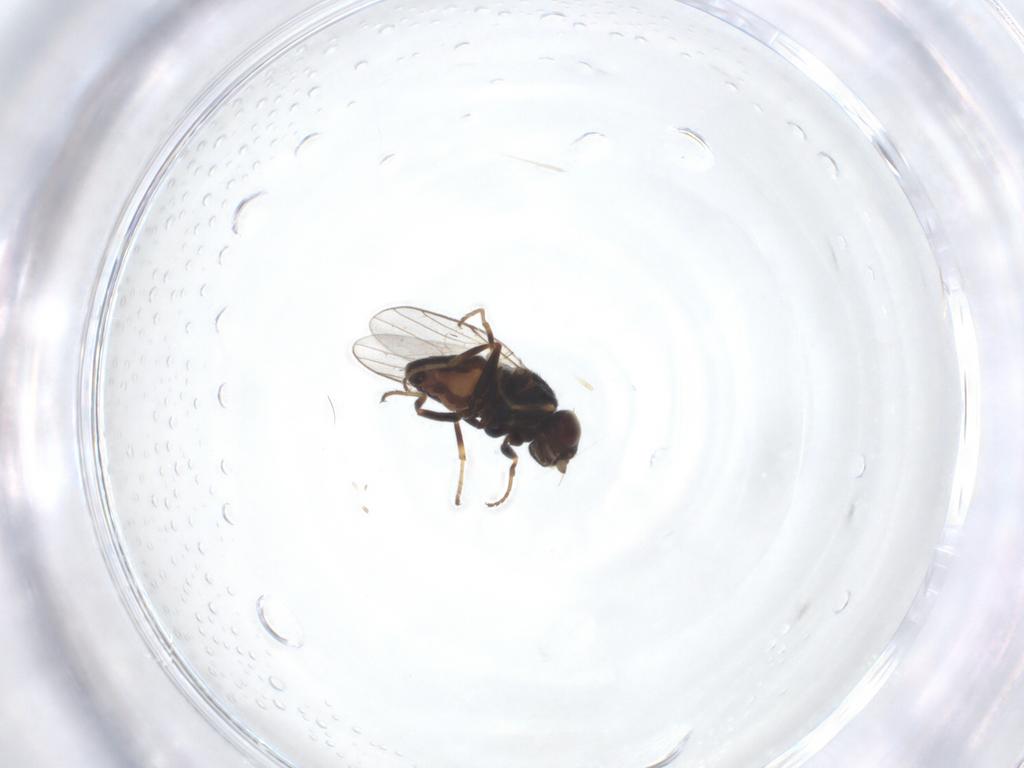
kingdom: Animalia
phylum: Arthropoda
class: Insecta
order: Diptera
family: Chloropidae
